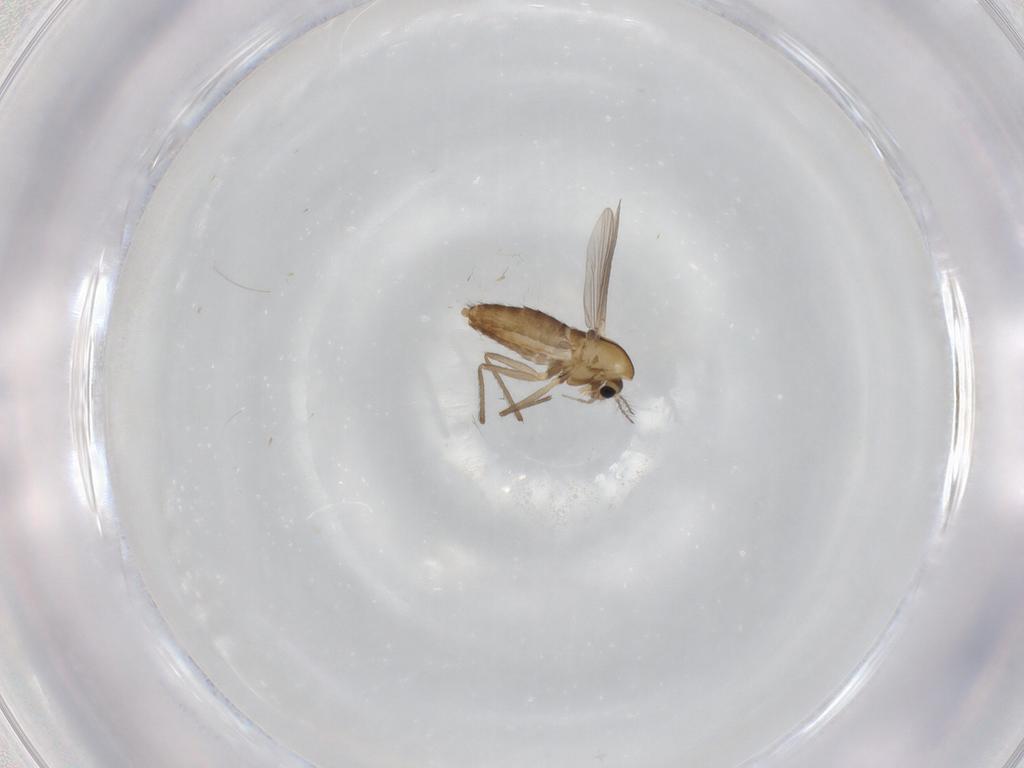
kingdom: Animalia
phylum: Arthropoda
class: Insecta
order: Diptera
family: Chironomidae
